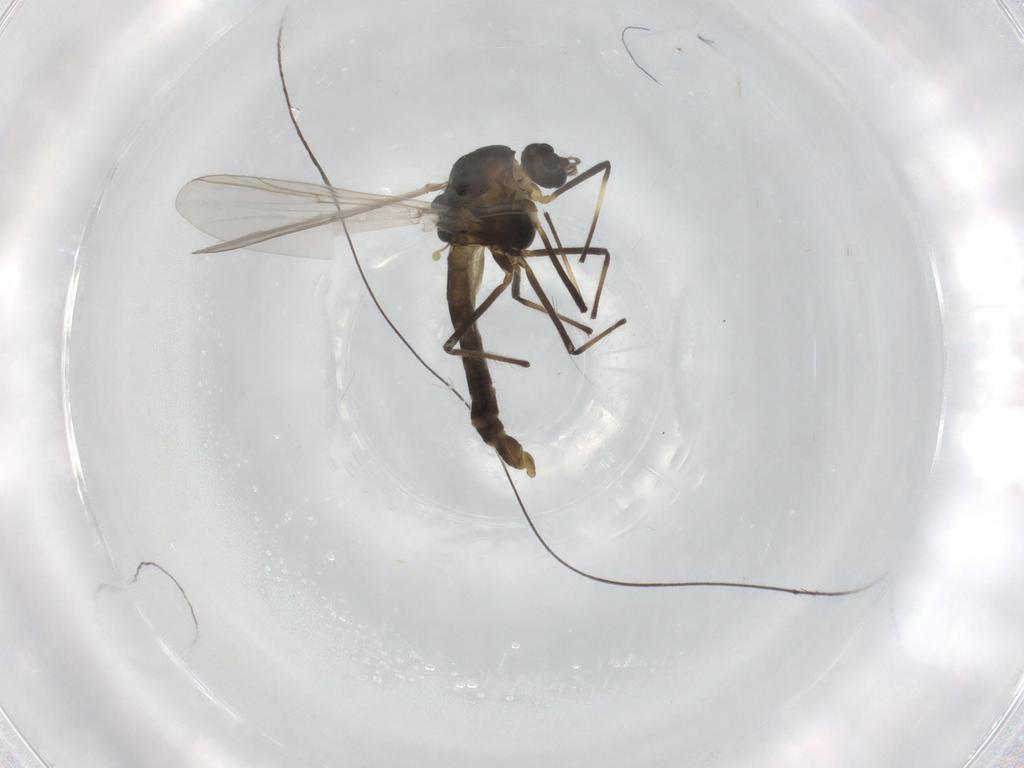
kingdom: Animalia
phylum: Arthropoda
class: Insecta
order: Diptera
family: Chironomidae
